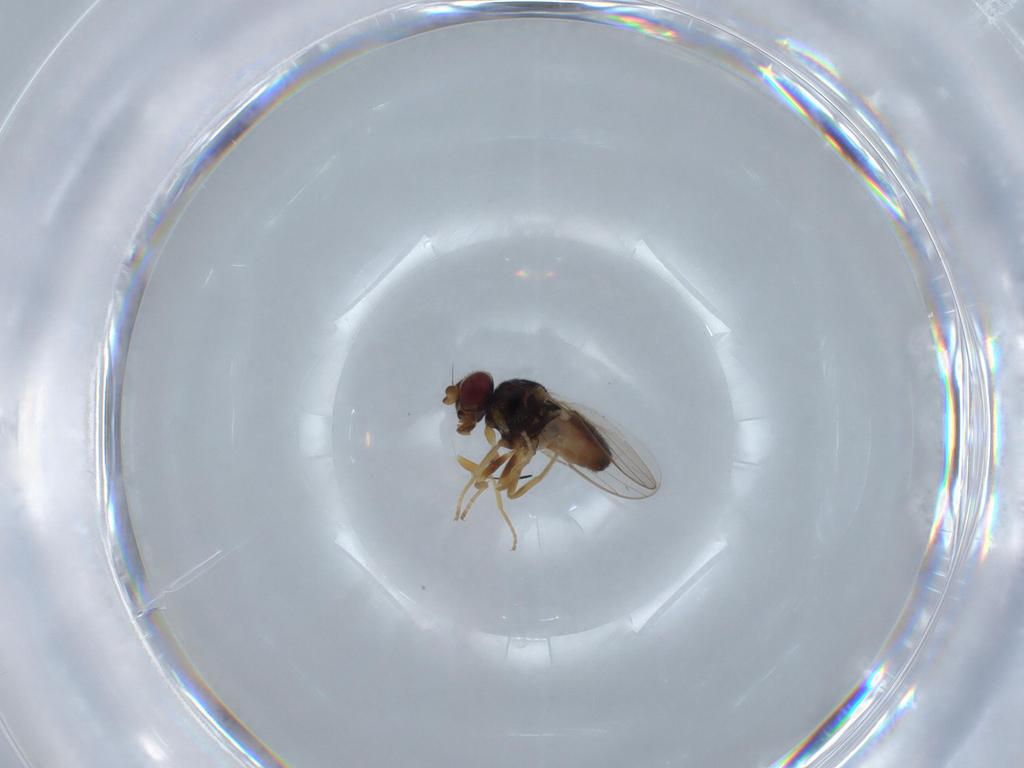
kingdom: Animalia
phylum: Arthropoda
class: Insecta
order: Diptera
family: Chloropidae
